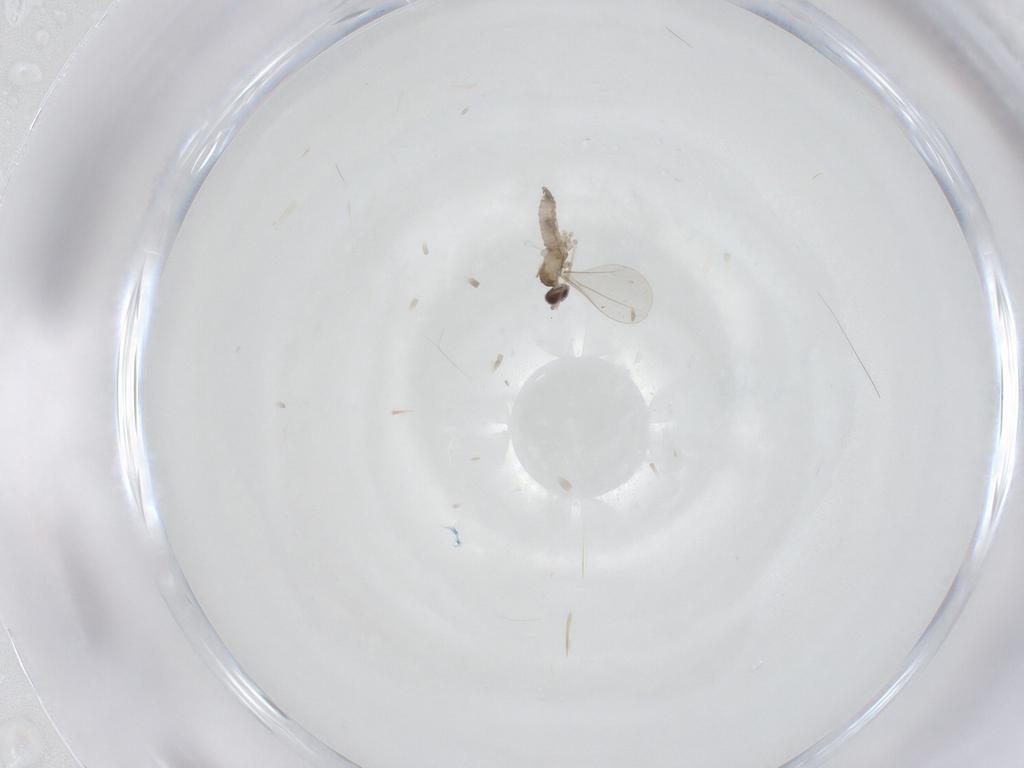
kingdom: Animalia
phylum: Arthropoda
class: Insecta
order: Diptera
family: Cecidomyiidae
